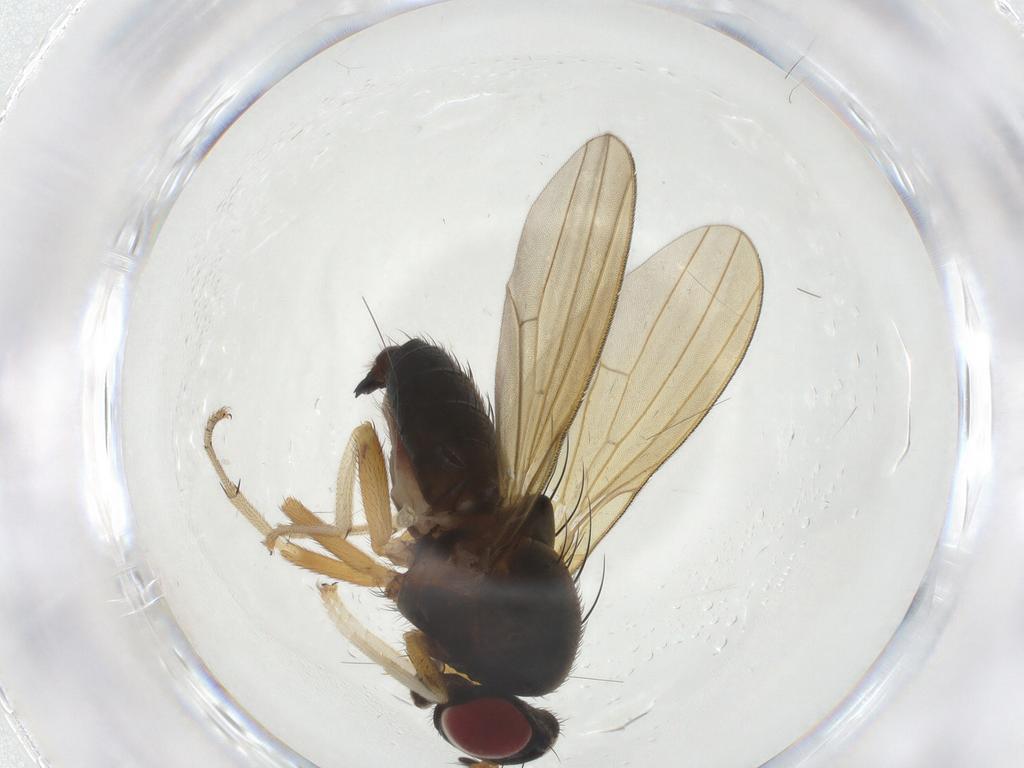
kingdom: Animalia
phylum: Arthropoda
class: Insecta
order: Diptera
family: Lauxaniidae
